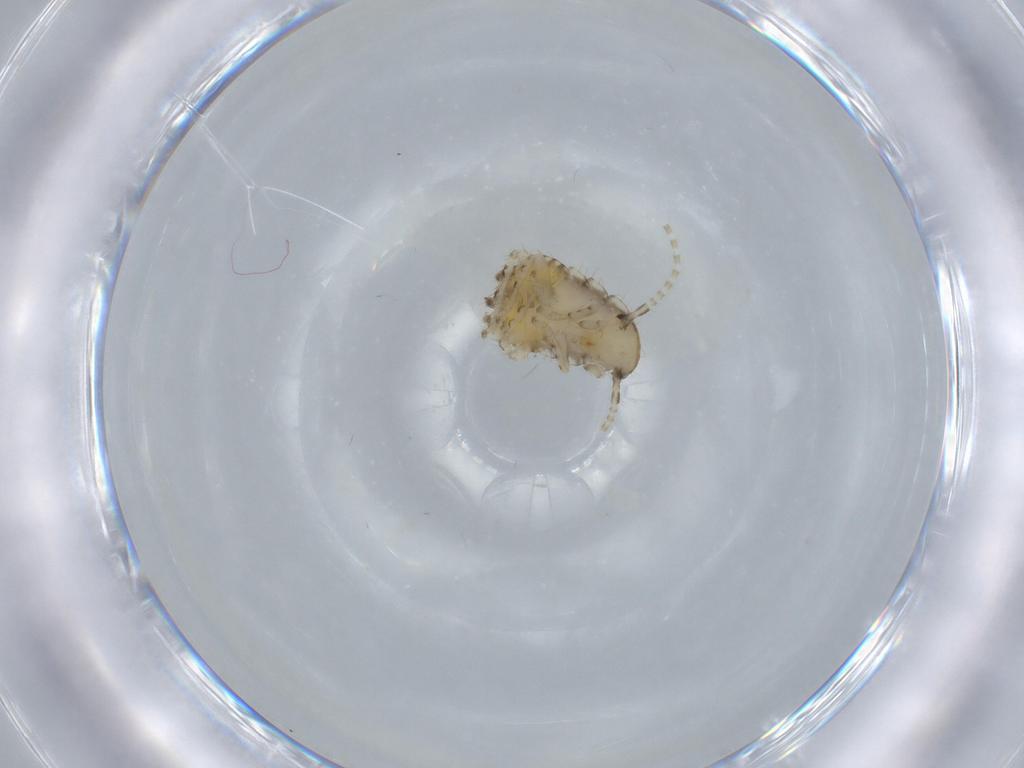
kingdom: Animalia
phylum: Arthropoda
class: Insecta
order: Blattodea
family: Ectobiidae
